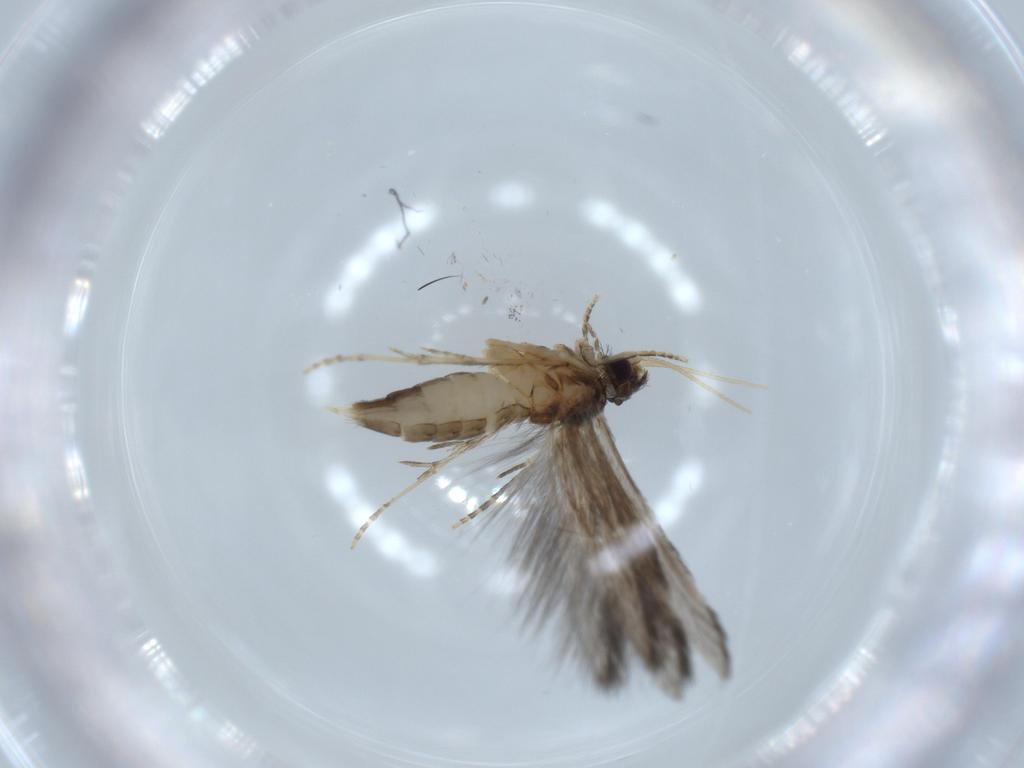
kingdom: Animalia
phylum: Arthropoda
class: Insecta
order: Trichoptera
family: Hydroptilidae
